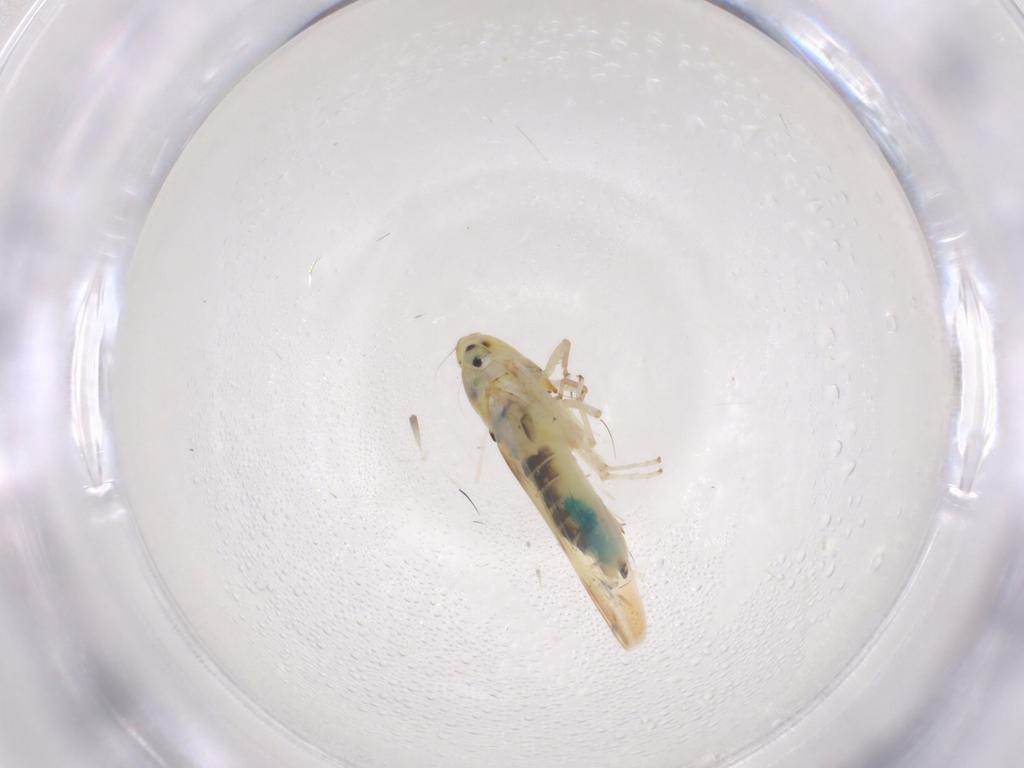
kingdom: Animalia
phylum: Arthropoda
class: Insecta
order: Hemiptera
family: Cicadellidae
